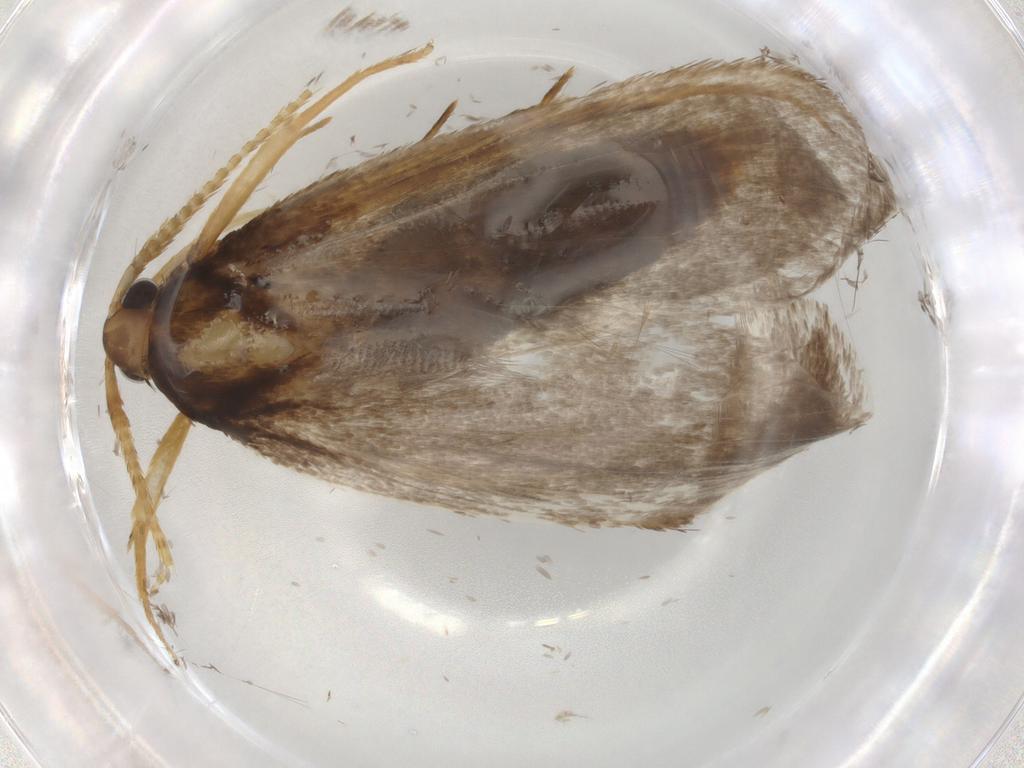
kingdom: Animalia
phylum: Arthropoda
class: Insecta
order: Lepidoptera
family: Lecithoceridae
